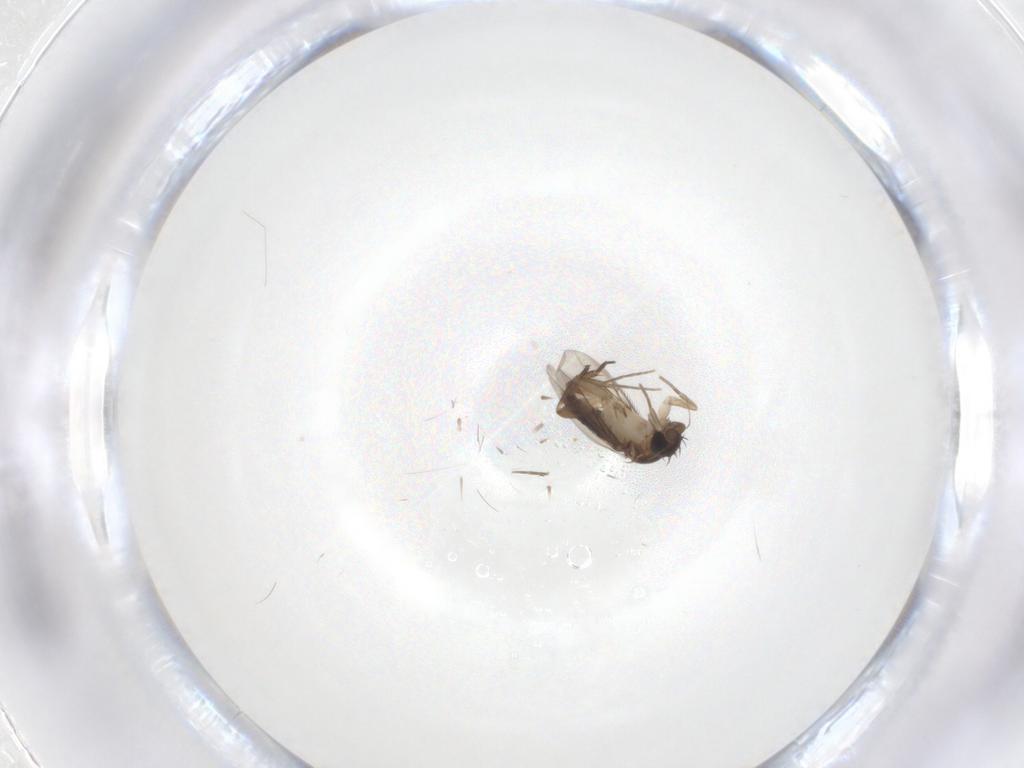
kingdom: Animalia
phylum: Arthropoda
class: Insecta
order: Diptera
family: Phoridae
